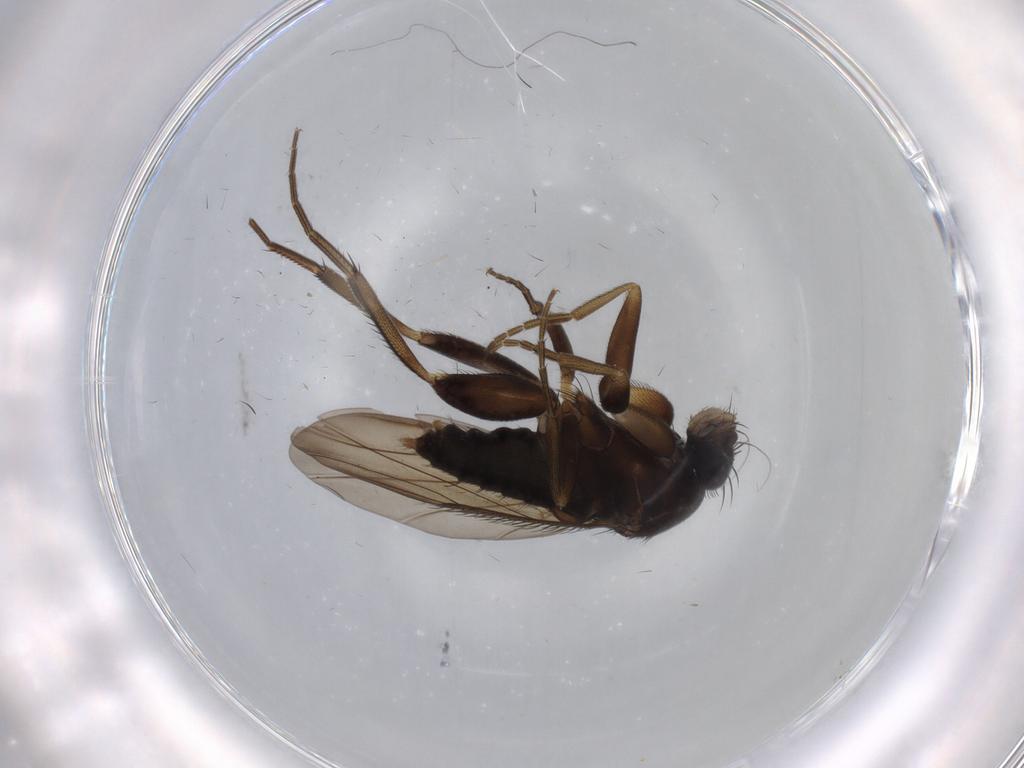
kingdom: Animalia
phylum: Arthropoda
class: Insecta
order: Diptera
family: Phoridae
